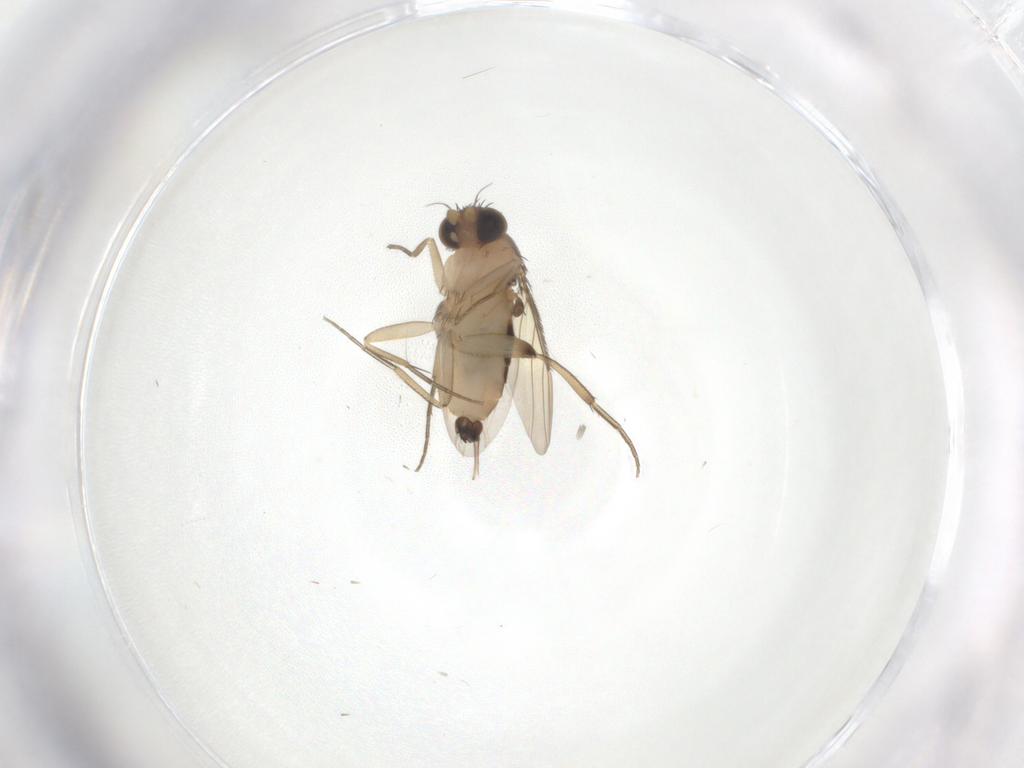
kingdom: Animalia
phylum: Arthropoda
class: Insecta
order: Diptera
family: Phoridae
